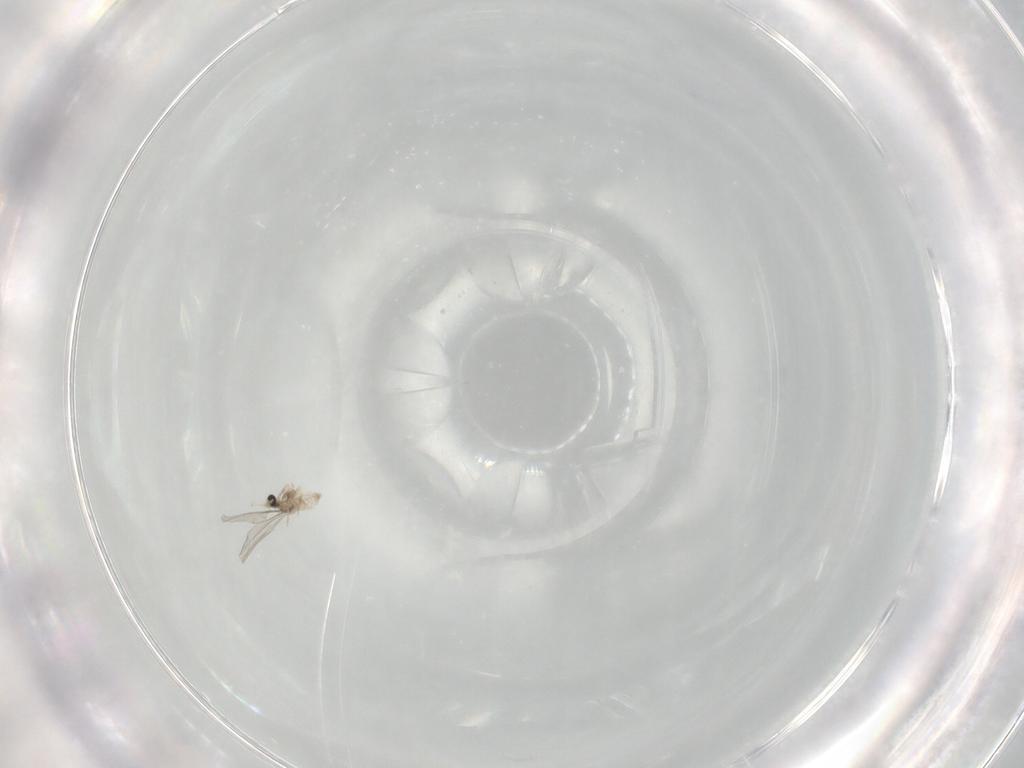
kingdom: Animalia
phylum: Arthropoda
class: Insecta
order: Diptera
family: Cecidomyiidae
